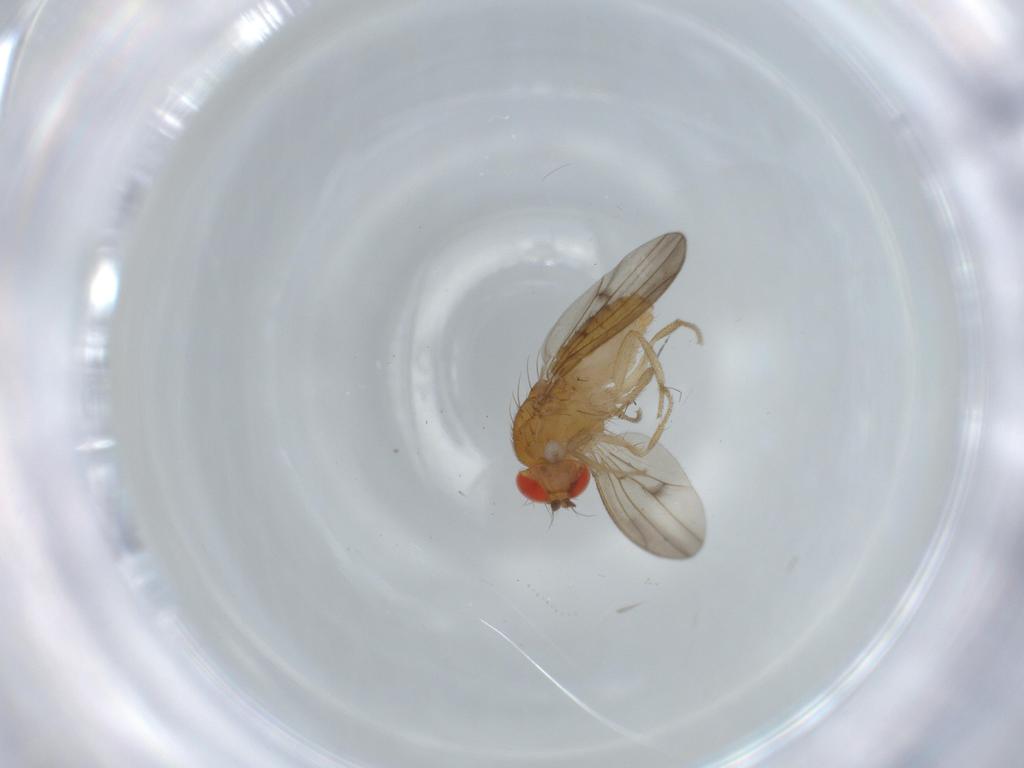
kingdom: Animalia
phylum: Arthropoda
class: Insecta
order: Diptera
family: Drosophilidae
